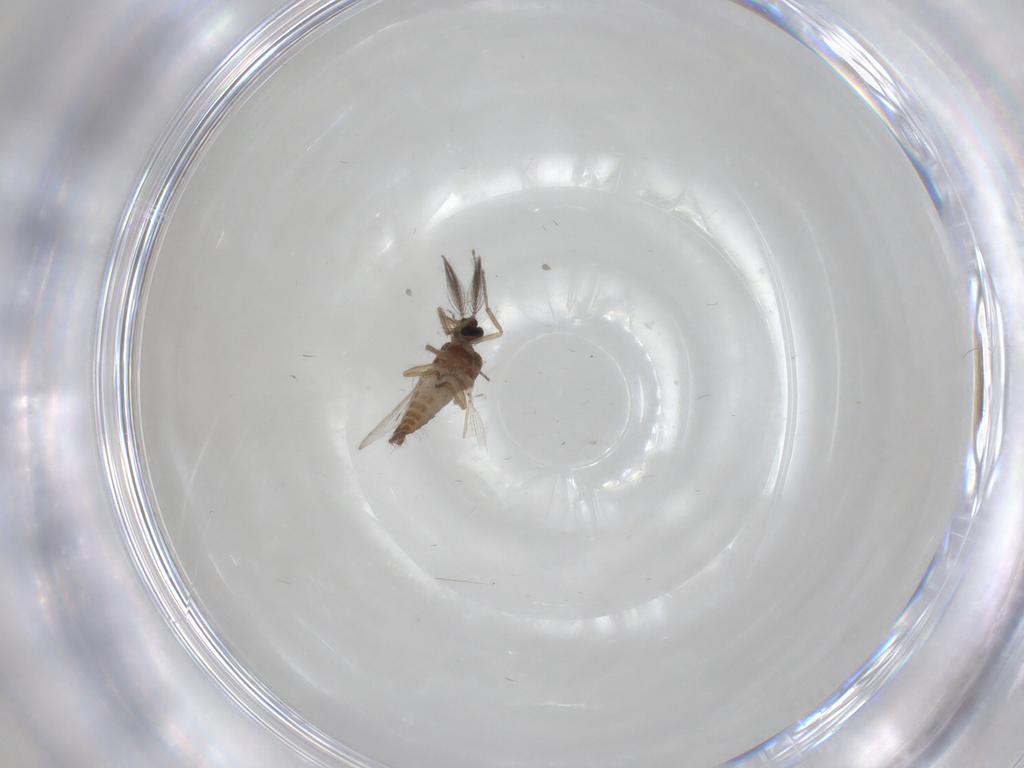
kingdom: Animalia
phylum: Arthropoda
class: Insecta
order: Diptera
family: Ceratopogonidae
